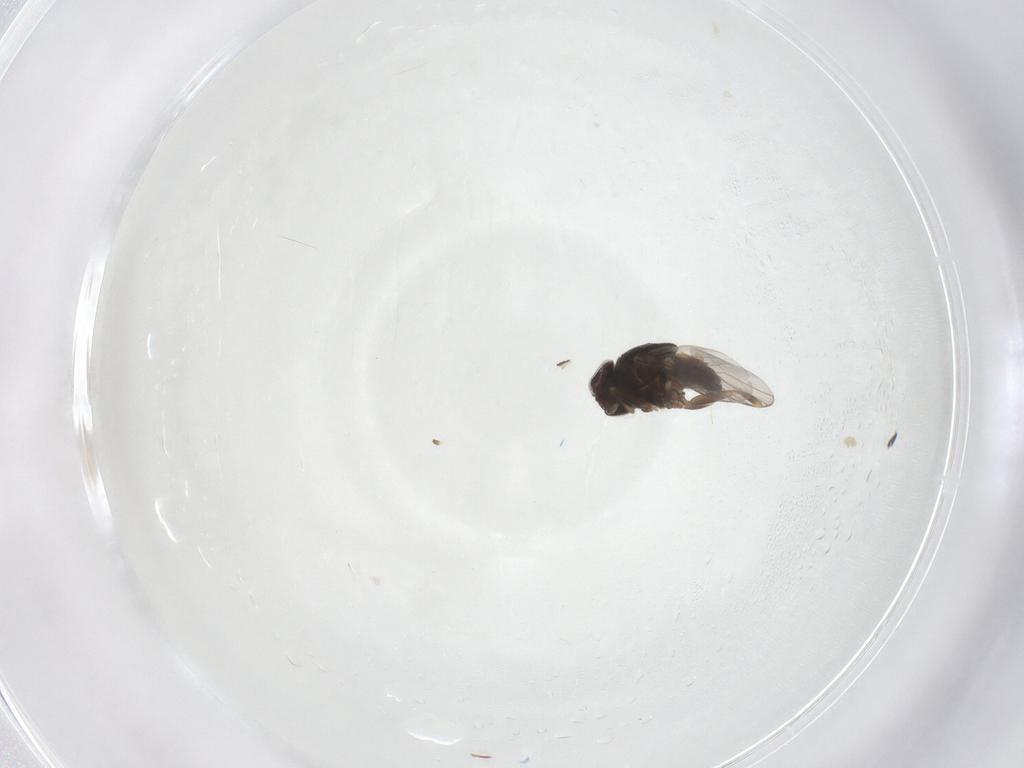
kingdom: Animalia
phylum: Arthropoda
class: Insecta
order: Diptera
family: Chloropidae
